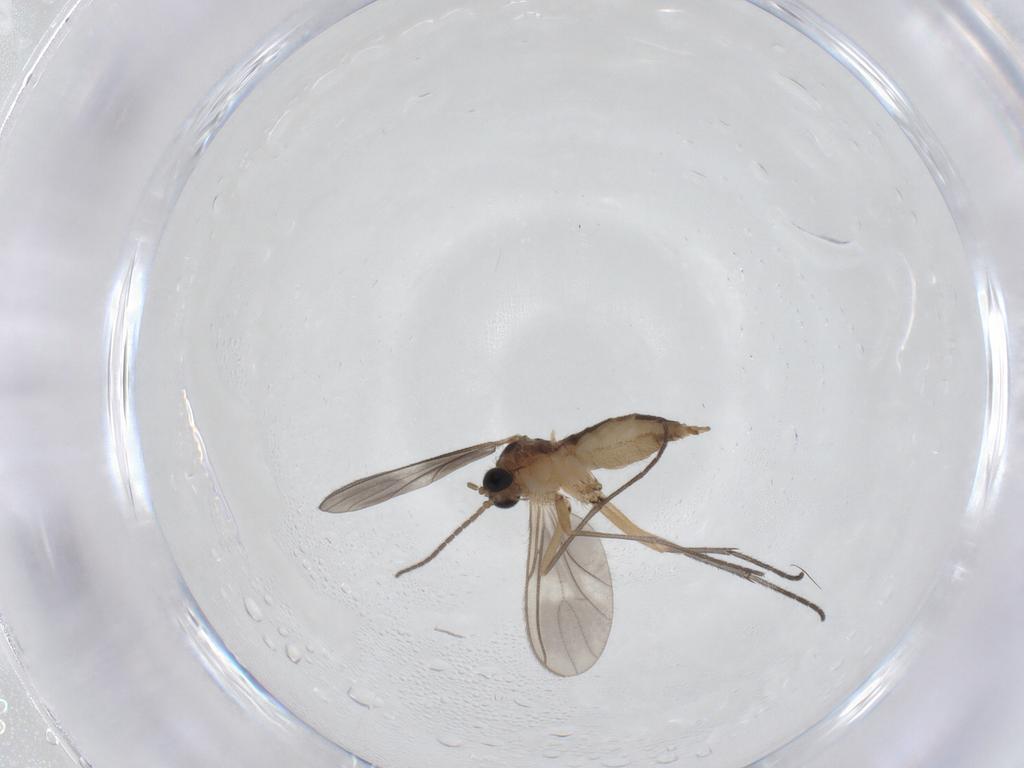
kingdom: Animalia
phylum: Arthropoda
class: Insecta
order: Diptera
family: Sciaridae
